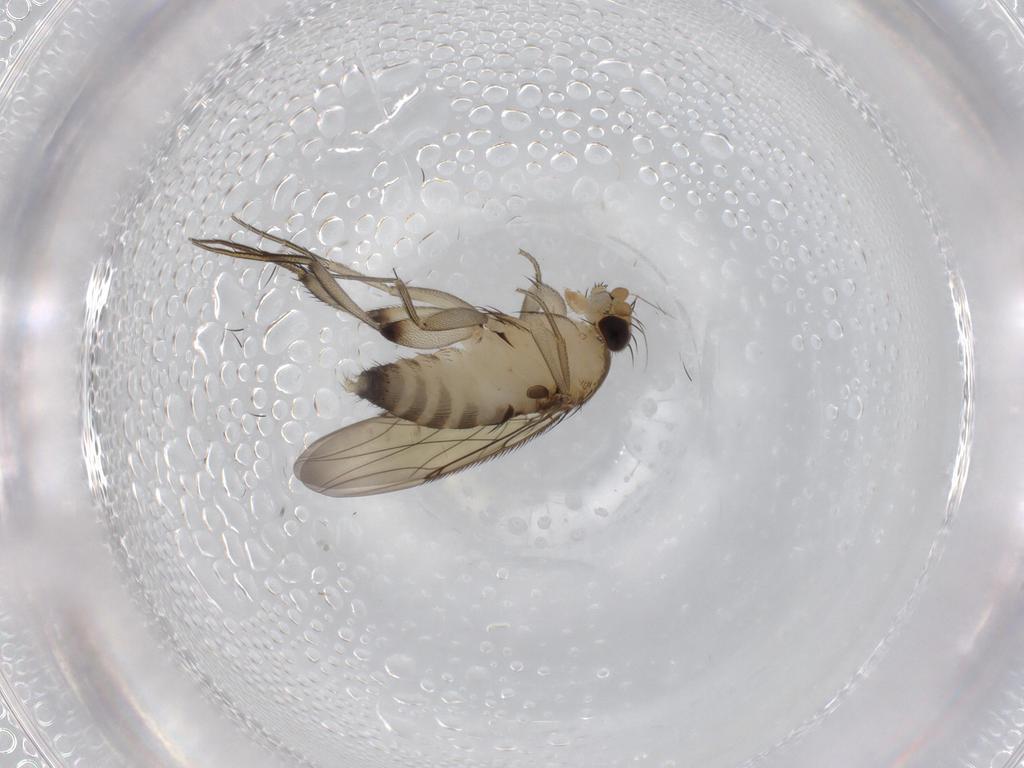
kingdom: Animalia
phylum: Arthropoda
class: Insecta
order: Diptera
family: Phoridae
